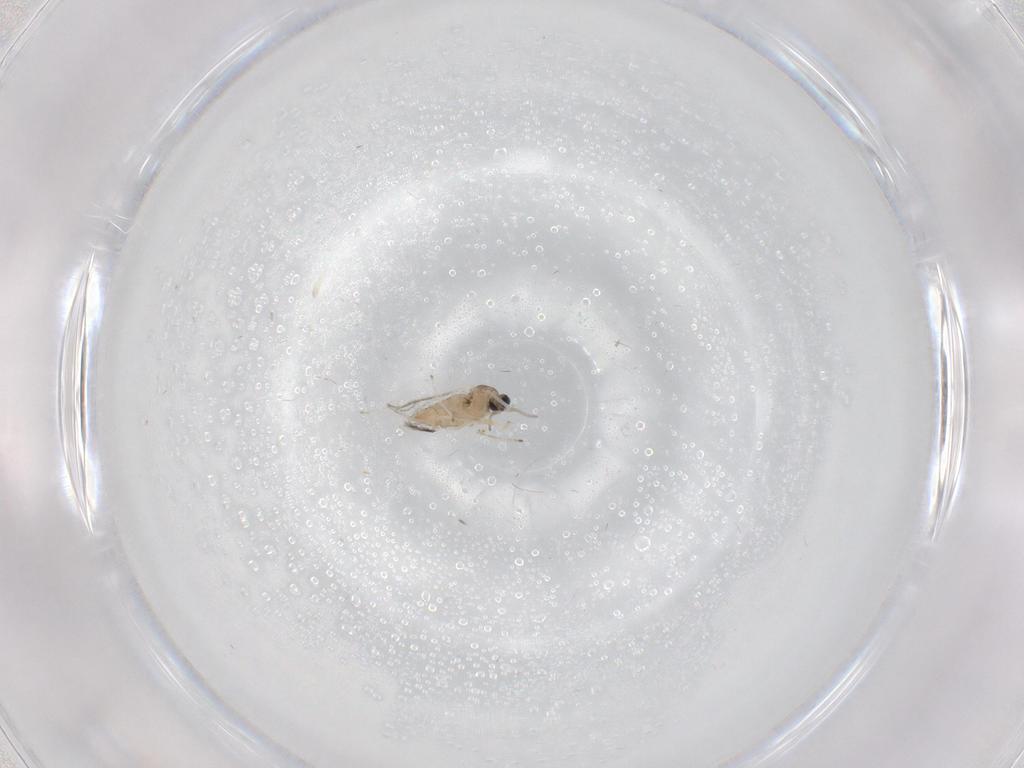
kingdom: Animalia
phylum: Arthropoda
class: Insecta
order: Diptera
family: Cecidomyiidae
